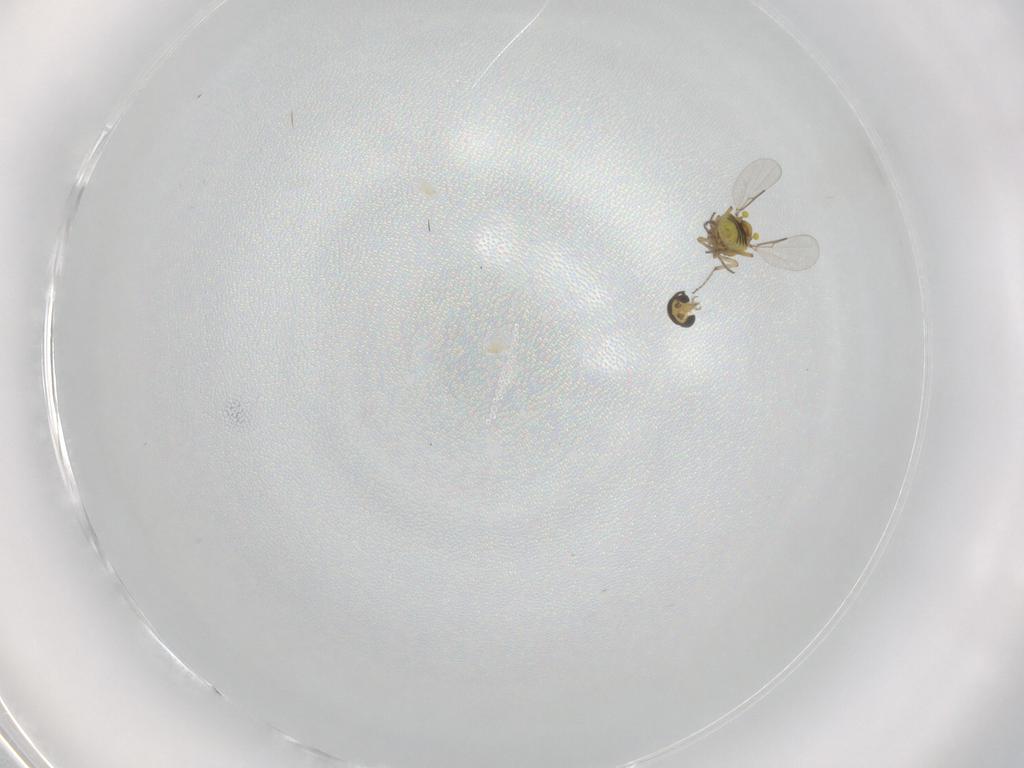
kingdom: Animalia
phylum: Arthropoda
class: Insecta
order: Diptera
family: Ceratopogonidae
